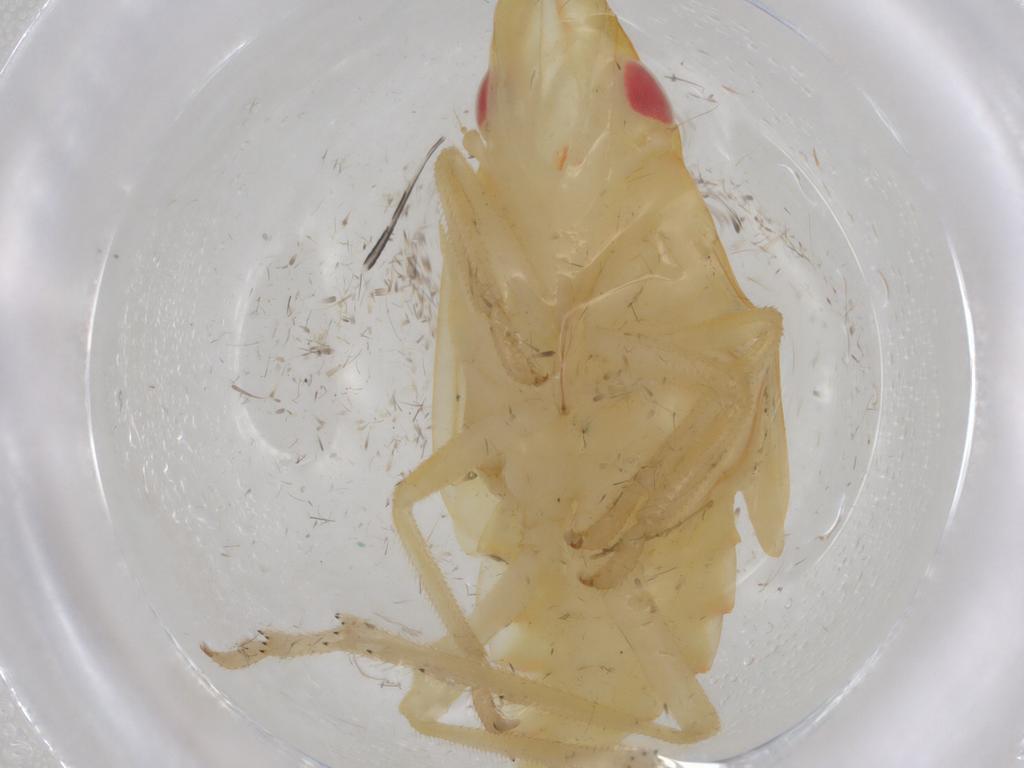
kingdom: Animalia
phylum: Arthropoda
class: Insecta
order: Hemiptera
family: Tropiduchidae
